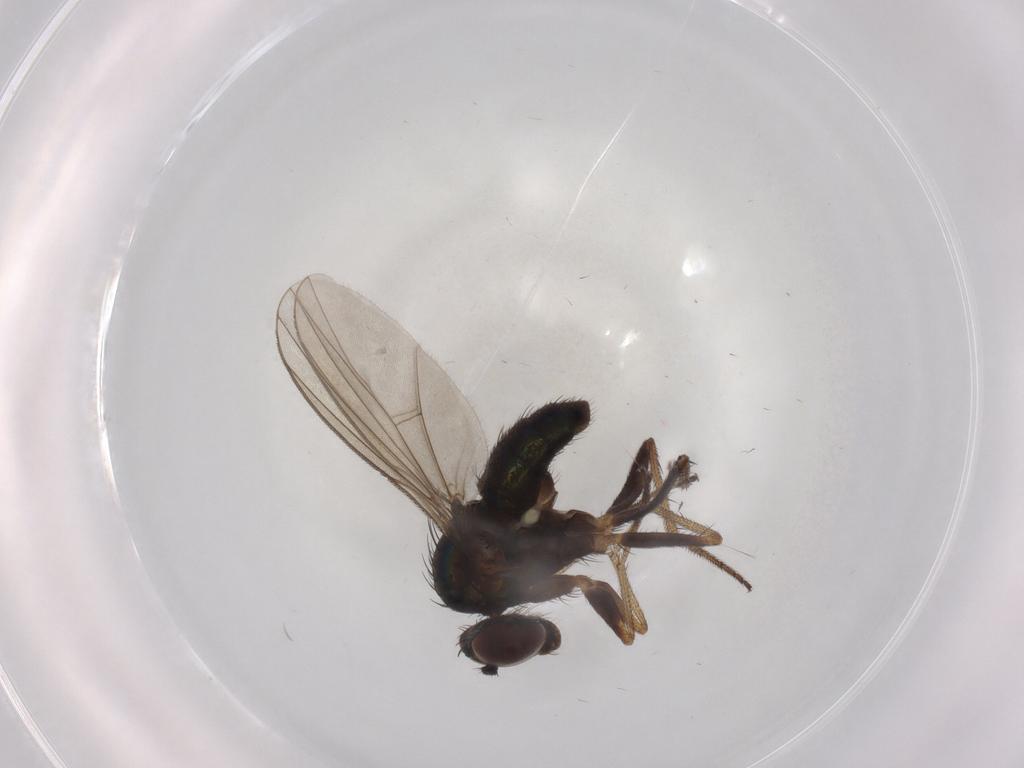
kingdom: Animalia
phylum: Arthropoda
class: Insecta
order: Diptera
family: Dolichopodidae
